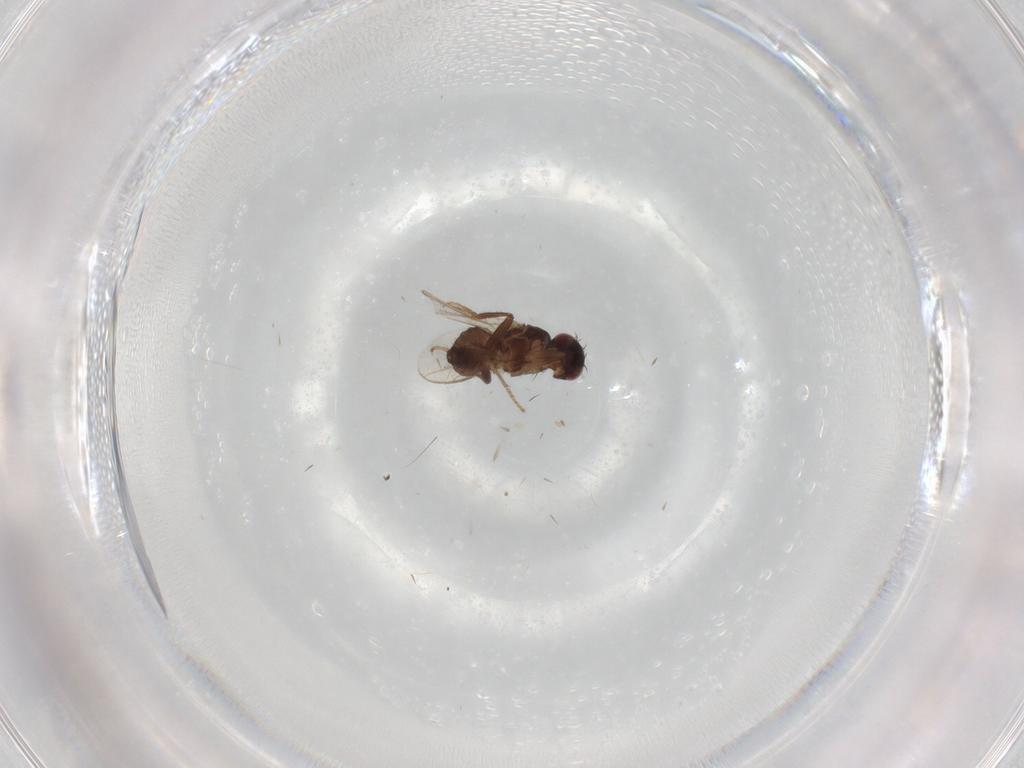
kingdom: Animalia
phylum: Arthropoda
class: Insecta
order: Diptera
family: Sphaeroceridae
